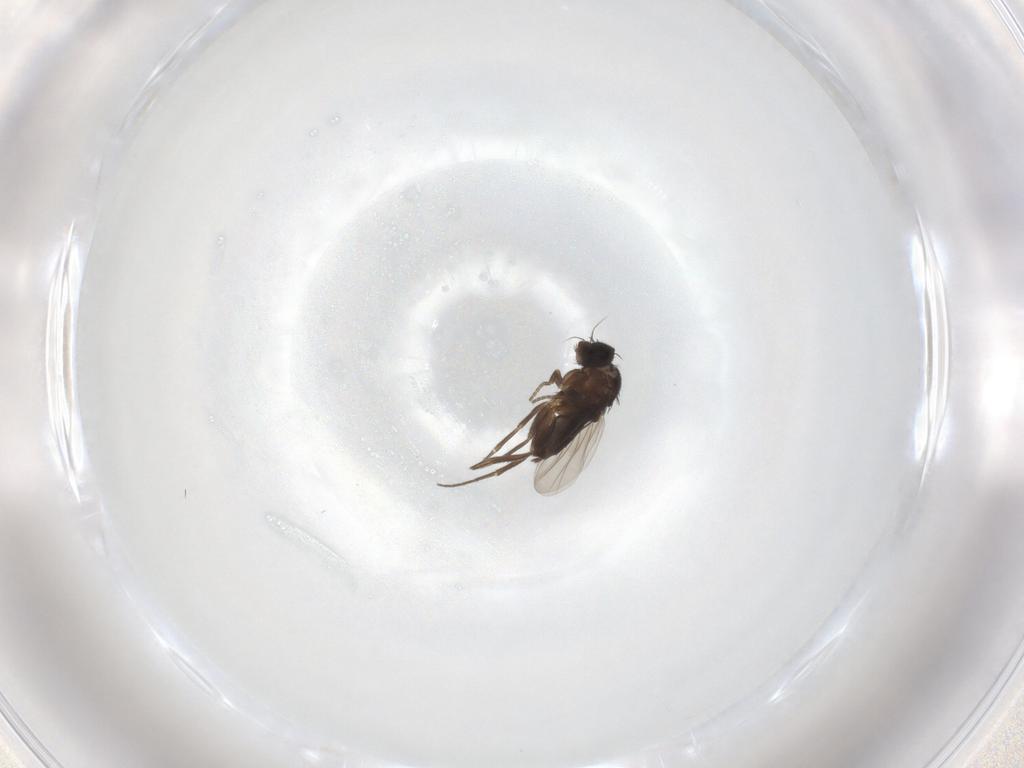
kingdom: Animalia
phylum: Arthropoda
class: Insecta
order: Diptera
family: Phoridae
